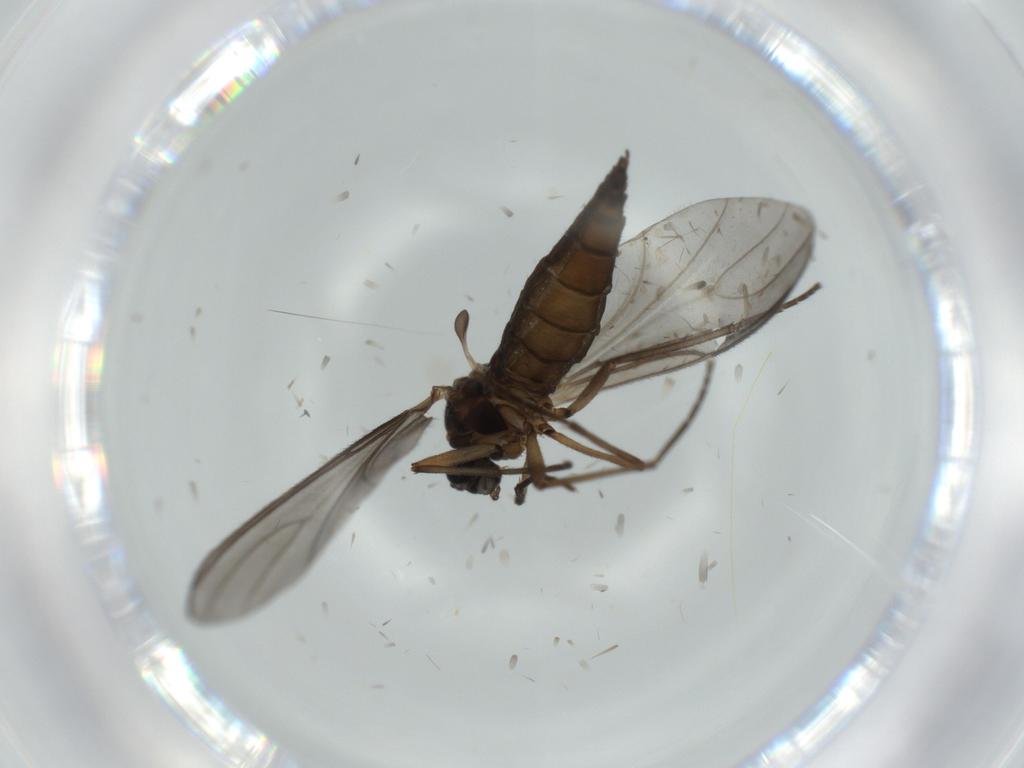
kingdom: Animalia
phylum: Arthropoda
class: Insecta
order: Diptera
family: Sciaridae
